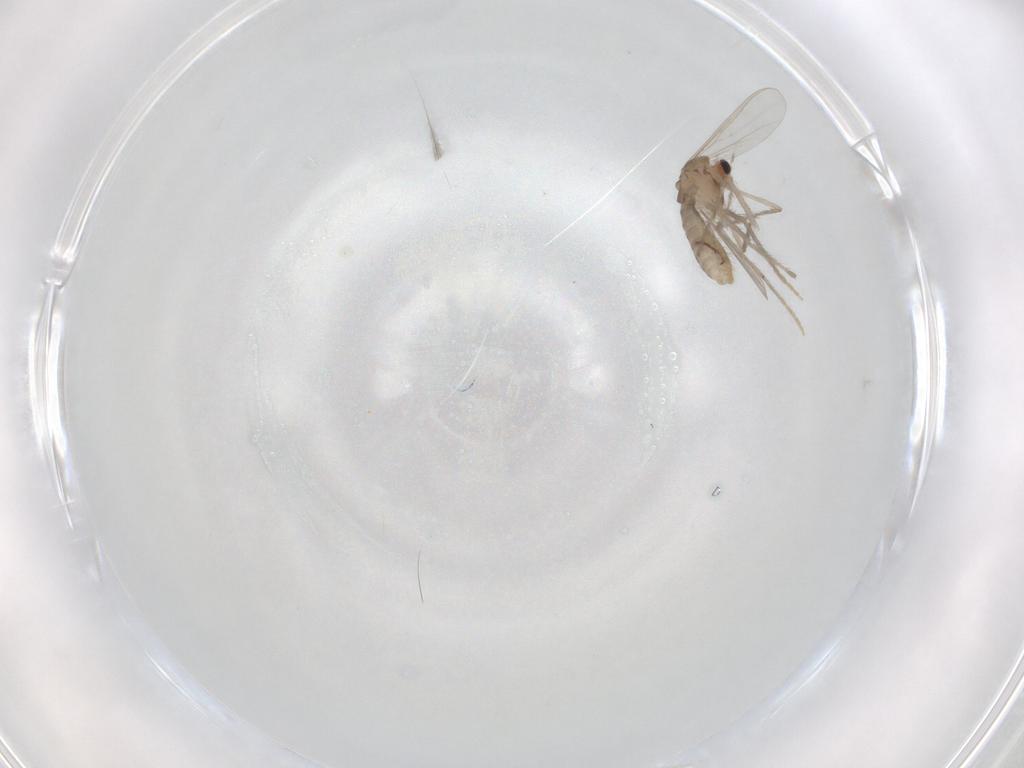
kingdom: Animalia
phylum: Arthropoda
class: Insecta
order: Diptera
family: Chironomidae
